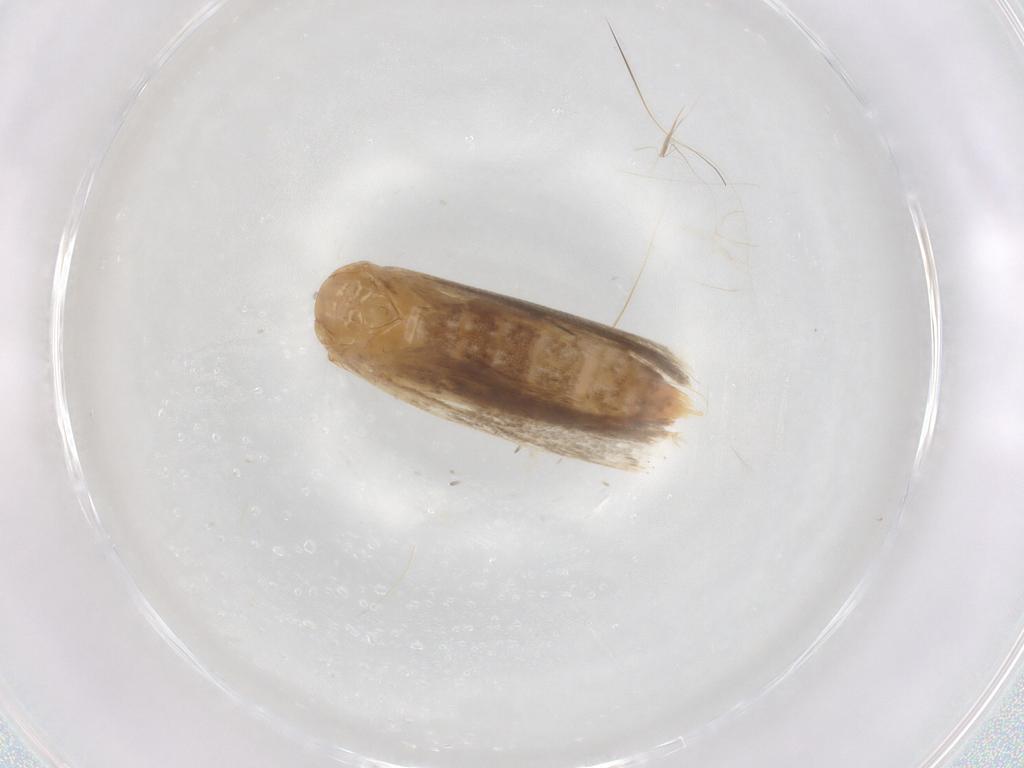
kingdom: Animalia
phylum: Arthropoda
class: Insecta
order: Lepidoptera
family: Plutellidae
